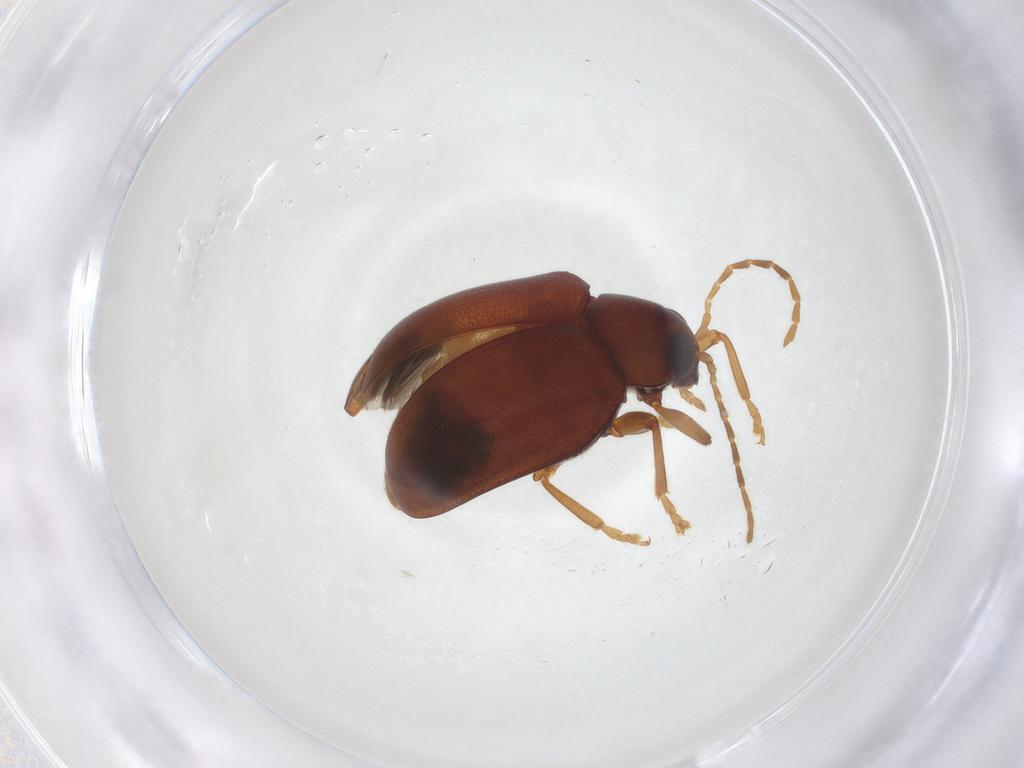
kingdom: Animalia
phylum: Arthropoda
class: Insecta
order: Coleoptera
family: Chrysomelidae
